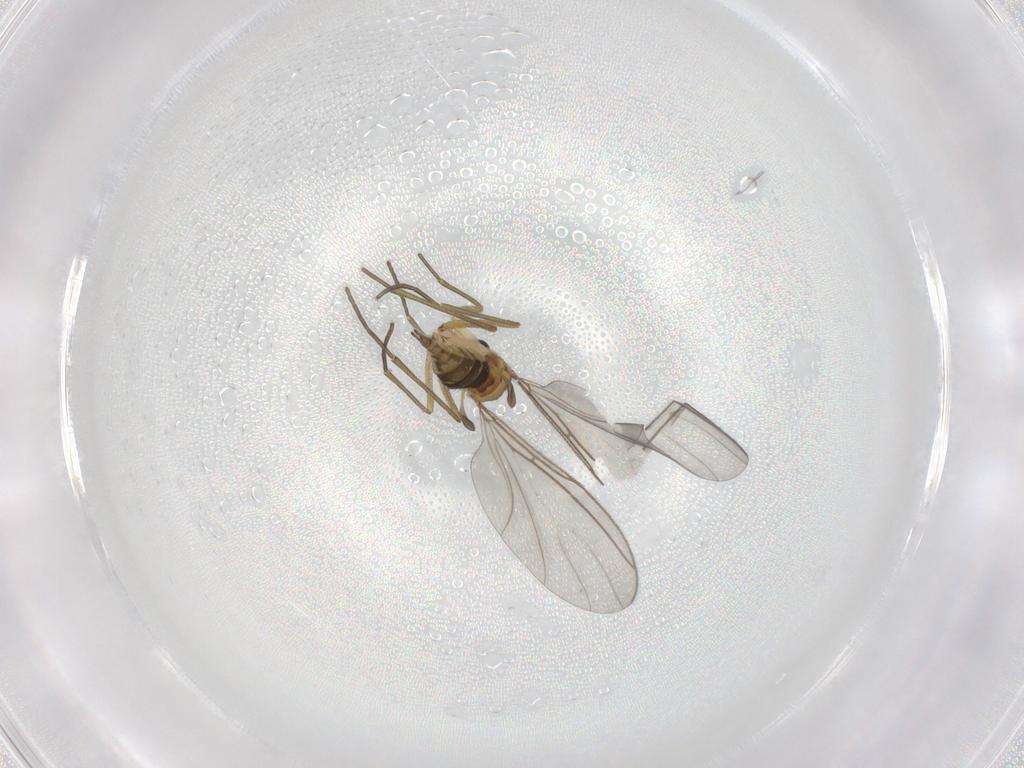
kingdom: Animalia
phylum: Arthropoda
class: Insecta
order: Diptera
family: Sciaridae
